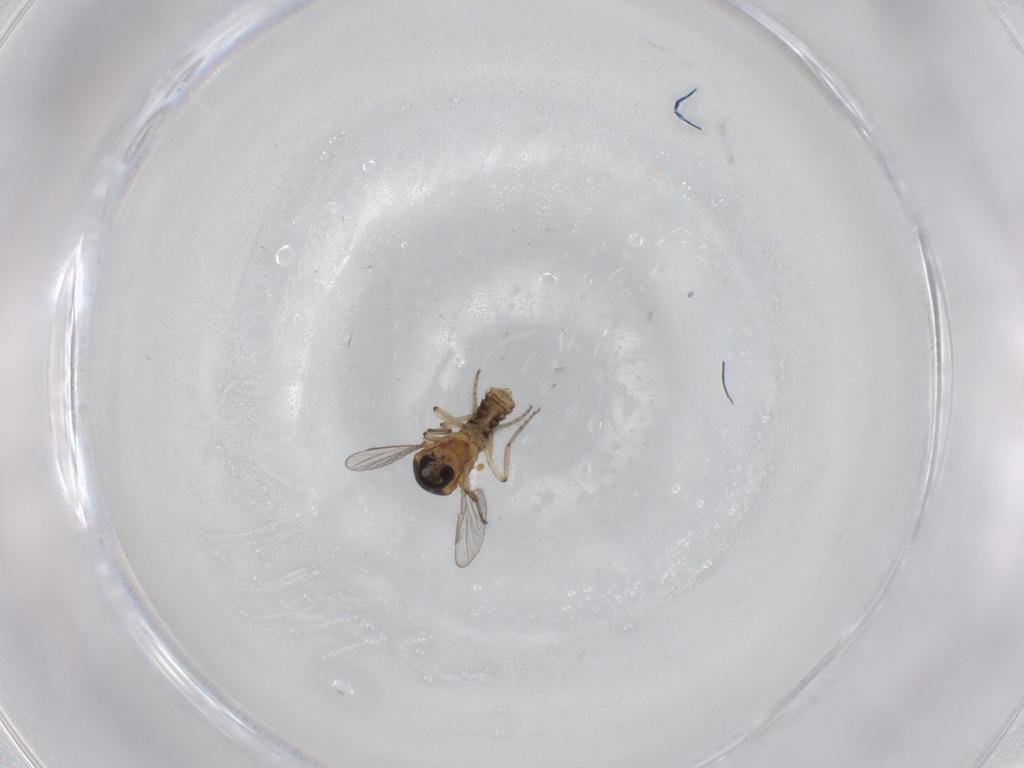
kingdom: Animalia
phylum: Arthropoda
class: Insecta
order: Diptera
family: Ceratopogonidae
